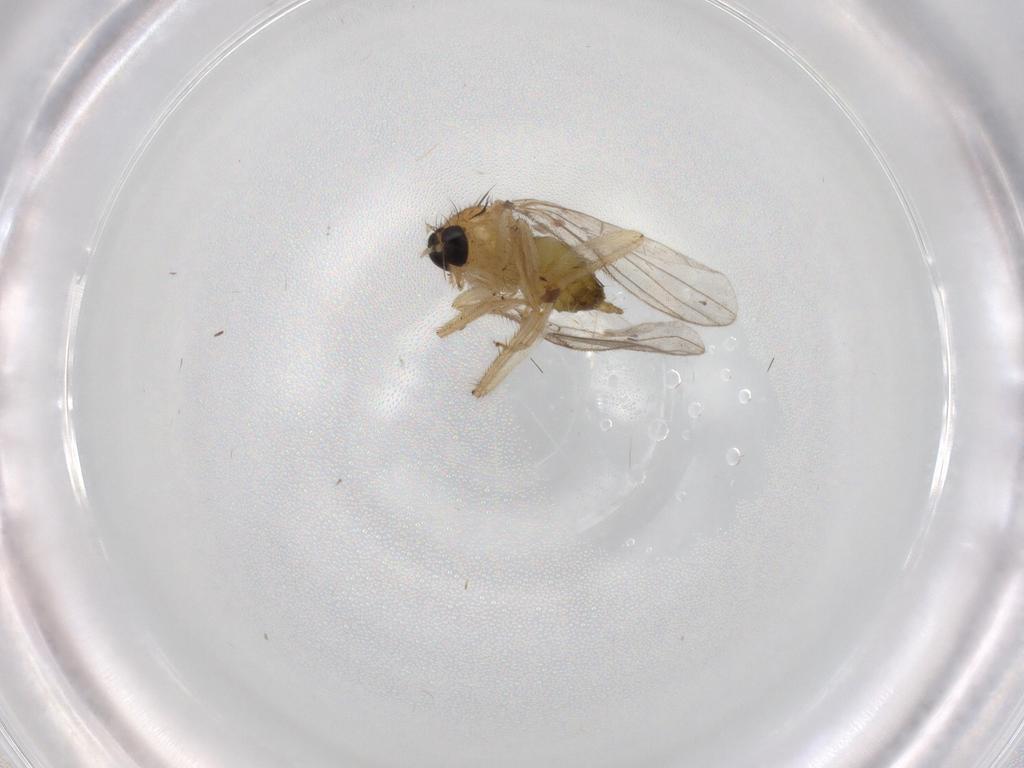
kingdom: Animalia
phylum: Arthropoda
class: Insecta
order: Diptera
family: Hybotidae
